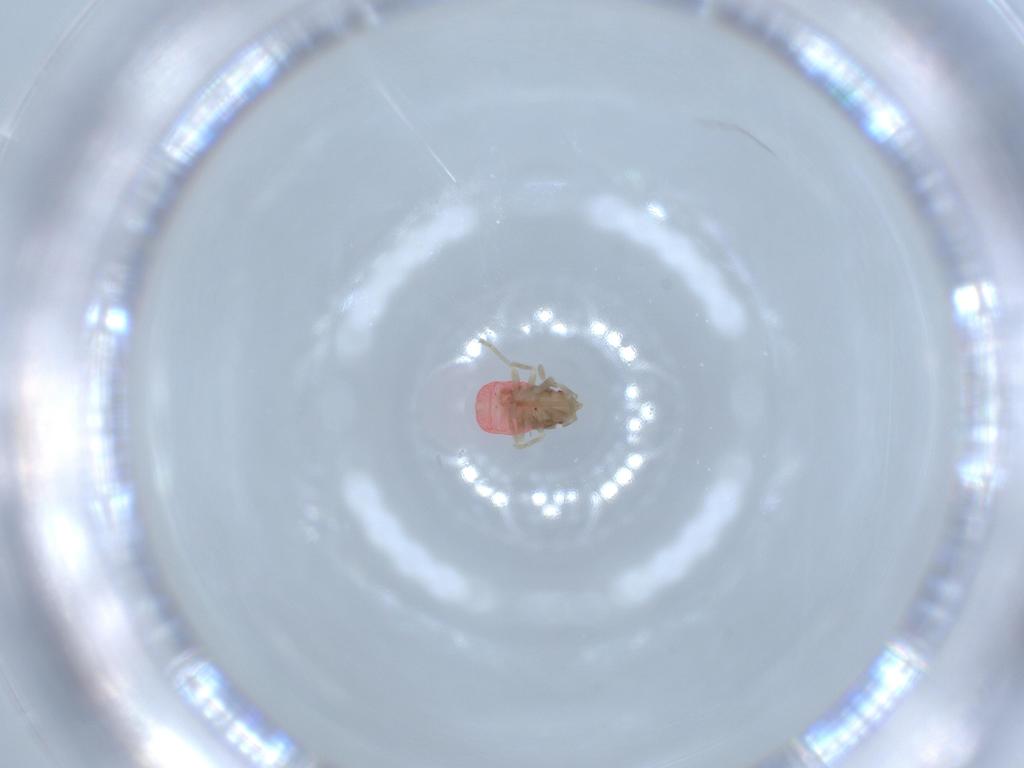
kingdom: Animalia
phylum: Arthropoda
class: Insecta
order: Hemiptera
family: Rhyparochromidae
